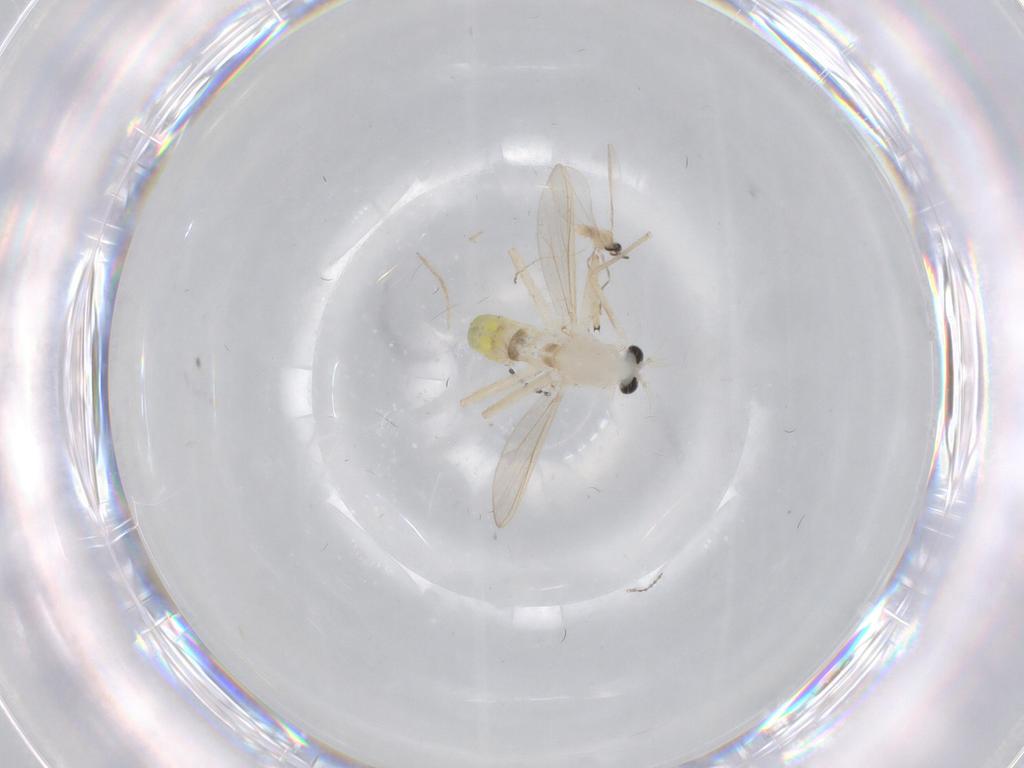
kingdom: Animalia
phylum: Arthropoda
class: Insecta
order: Diptera
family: Chironomidae
